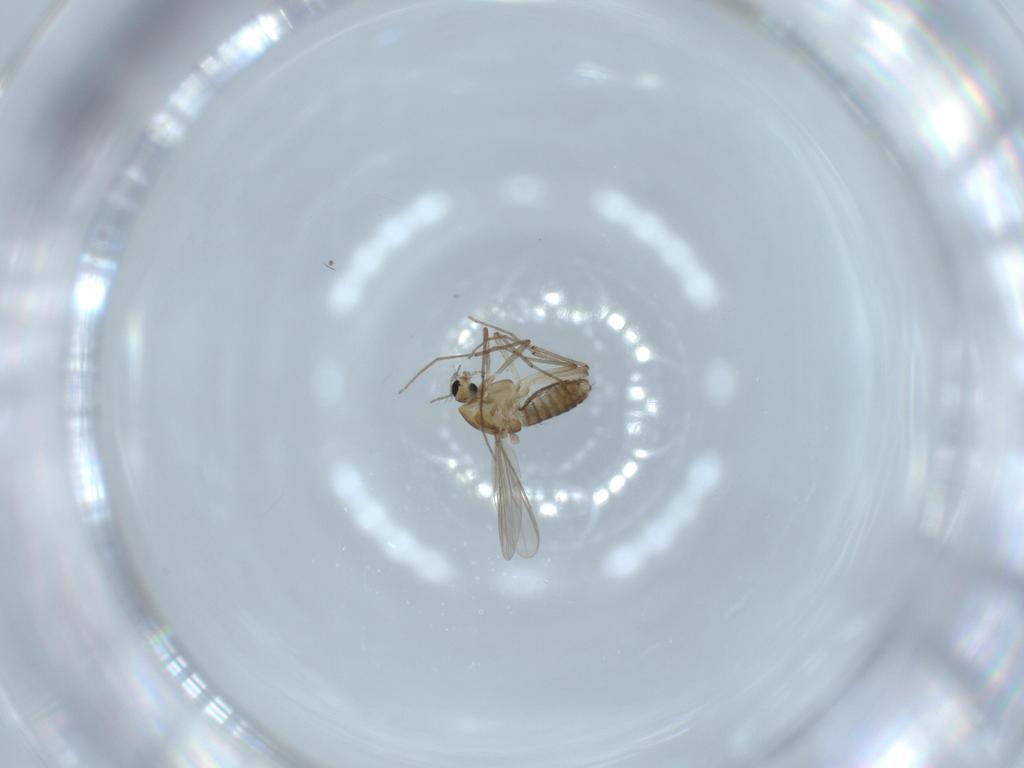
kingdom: Animalia
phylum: Arthropoda
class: Insecta
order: Diptera
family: Chironomidae
